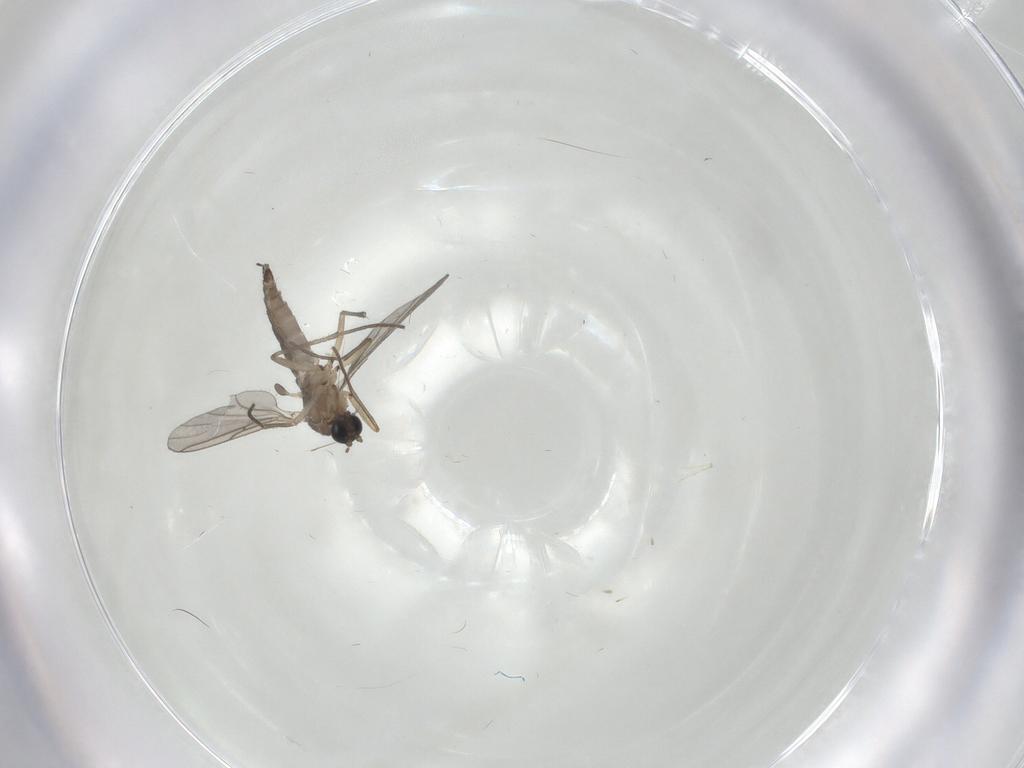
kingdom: Animalia
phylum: Arthropoda
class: Insecta
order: Diptera
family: Sciaridae
